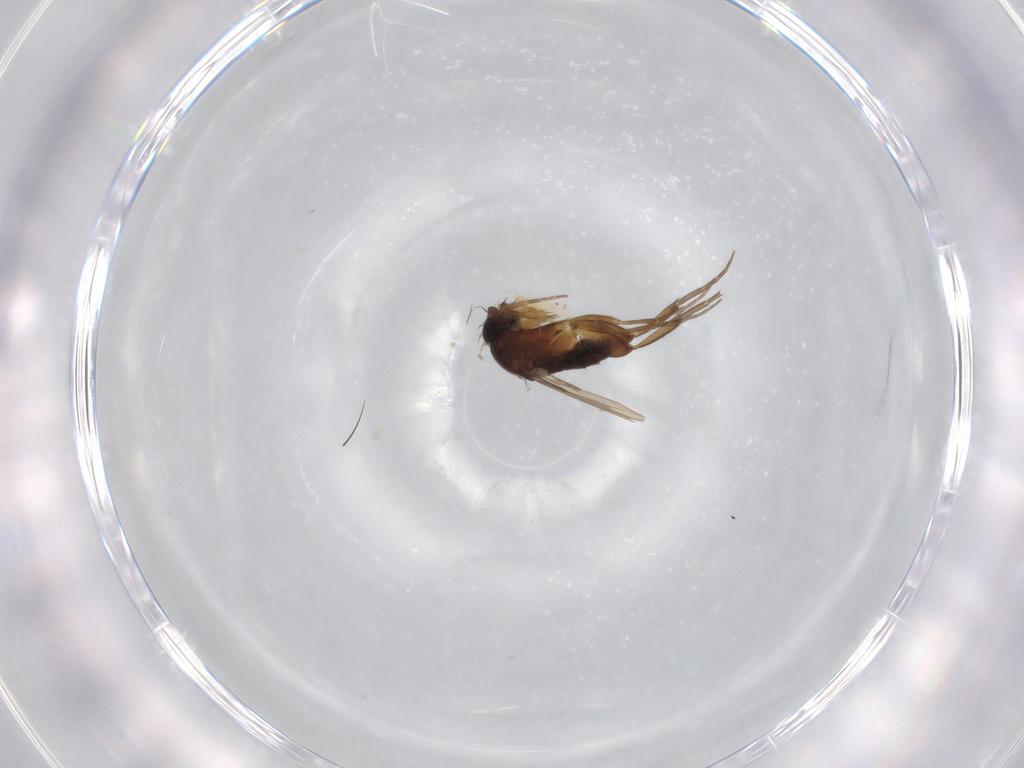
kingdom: Animalia
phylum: Arthropoda
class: Insecta
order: Diptera
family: Phoridae
